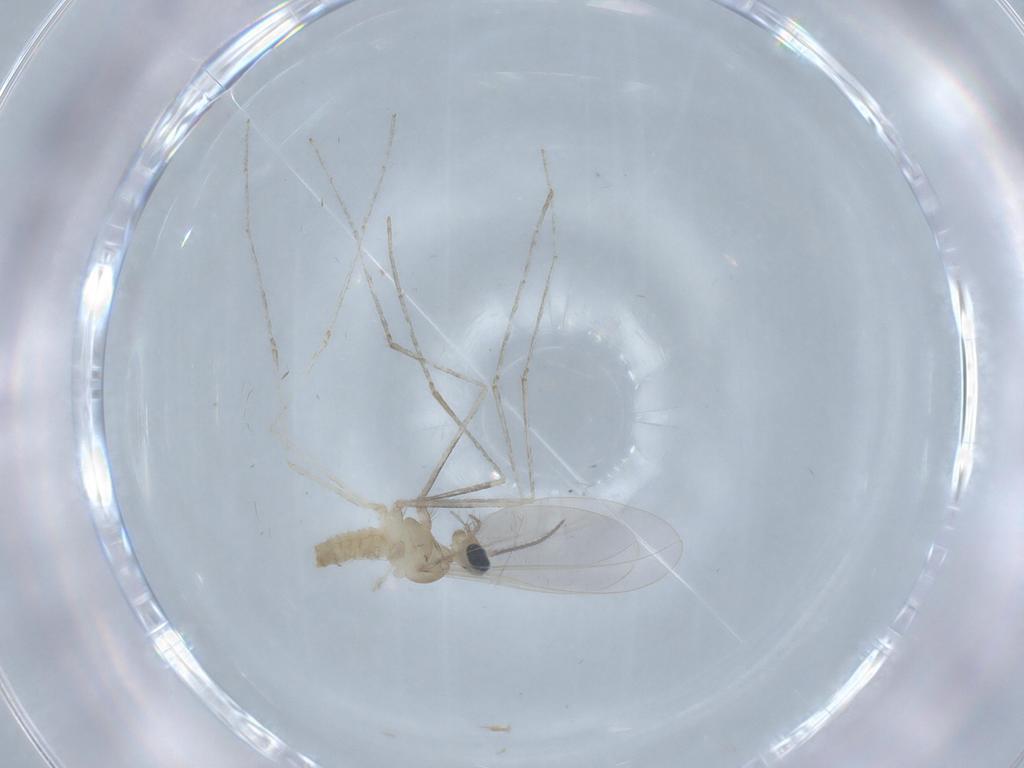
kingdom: Animalia
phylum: Arthropoda
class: Insecta
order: Diptera
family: Cecidomyiidae
